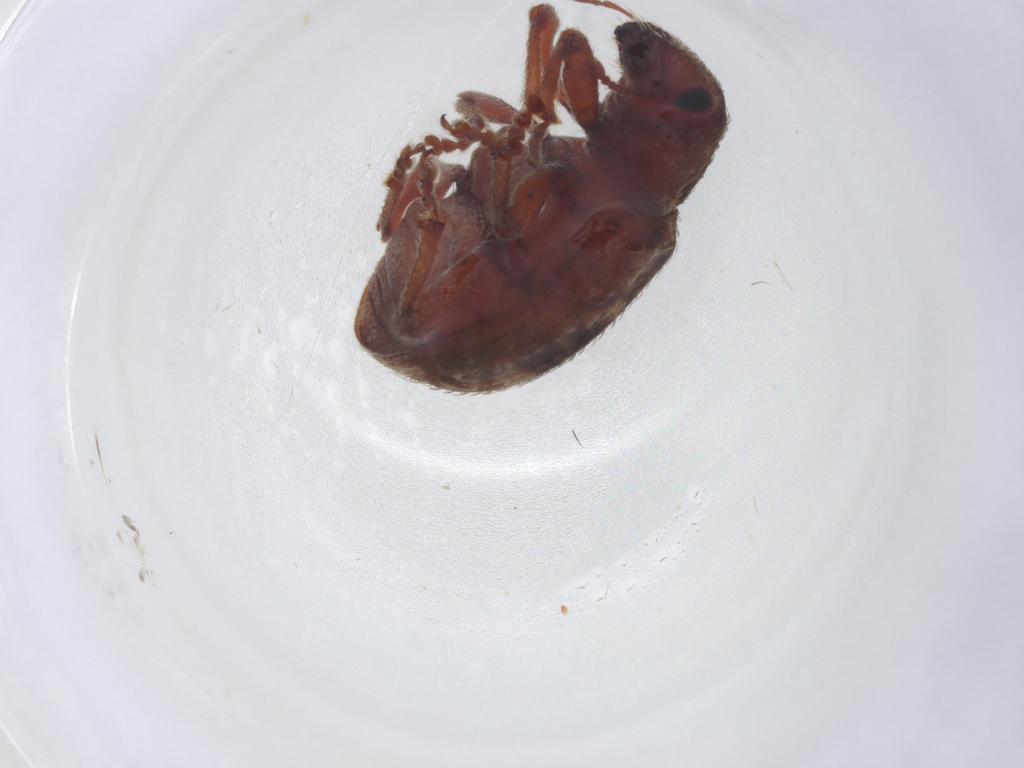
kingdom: Animalia
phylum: Arthropoda
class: Insecta
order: Coleoptera
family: Curculionidae
